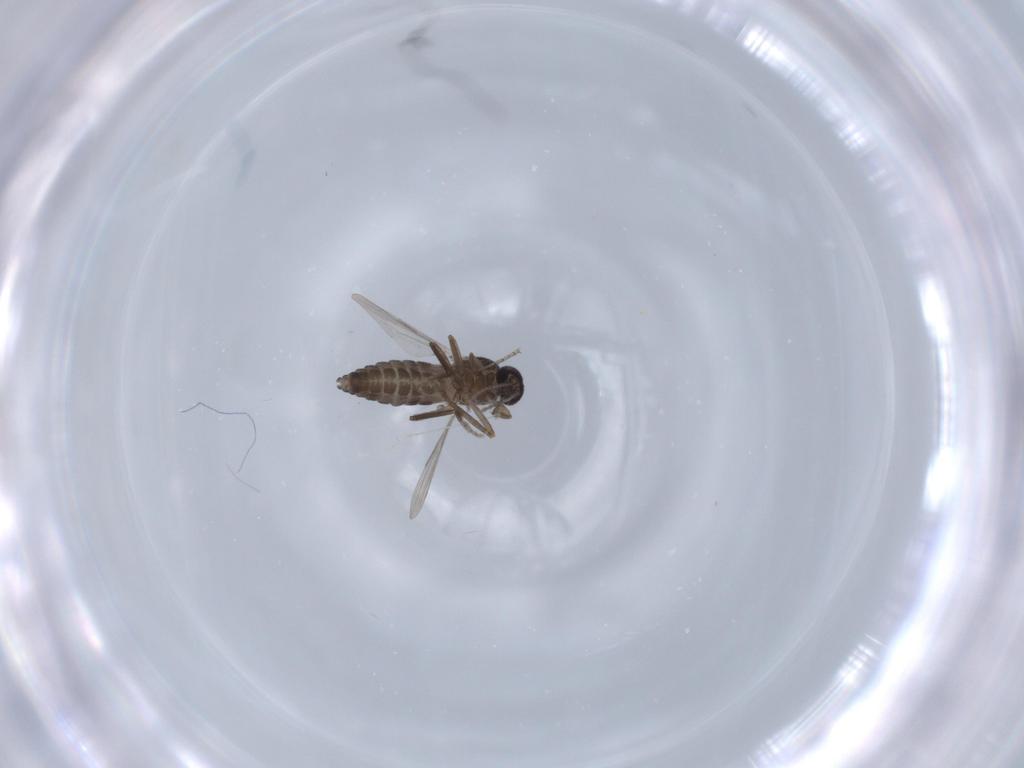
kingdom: Animalia
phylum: Arthropoda
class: Insecta
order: Diptera
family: Ceratopogonidae
